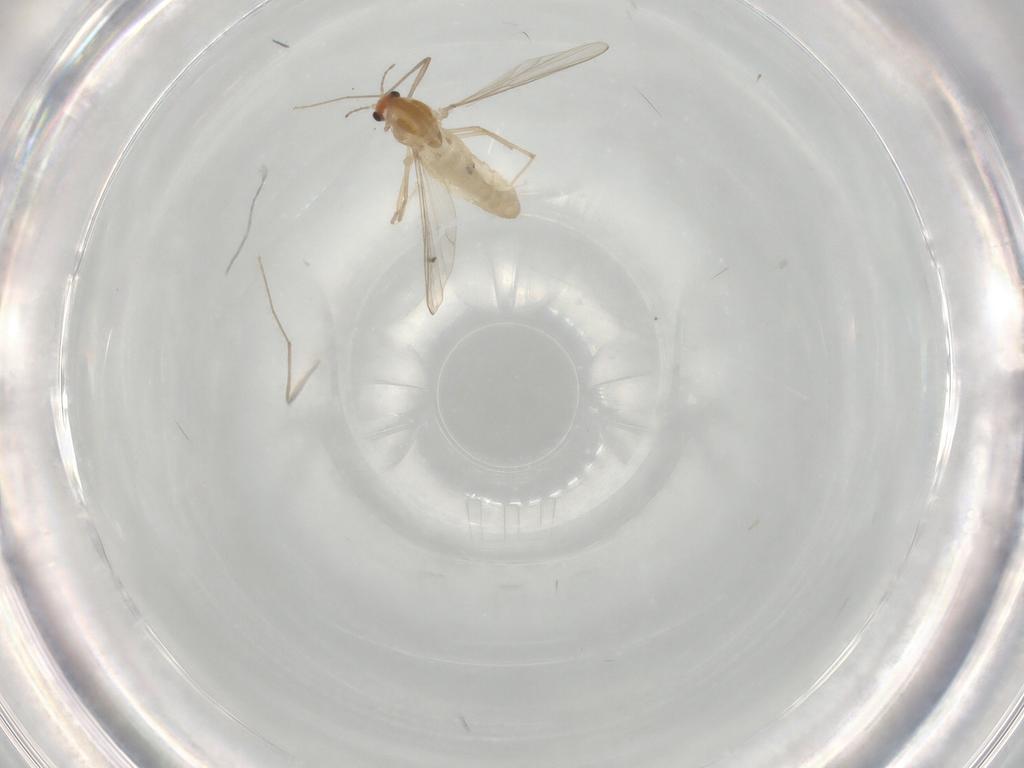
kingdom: Animalia
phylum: Arthropoda
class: Insecta
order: Diptera
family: Chironomidae
